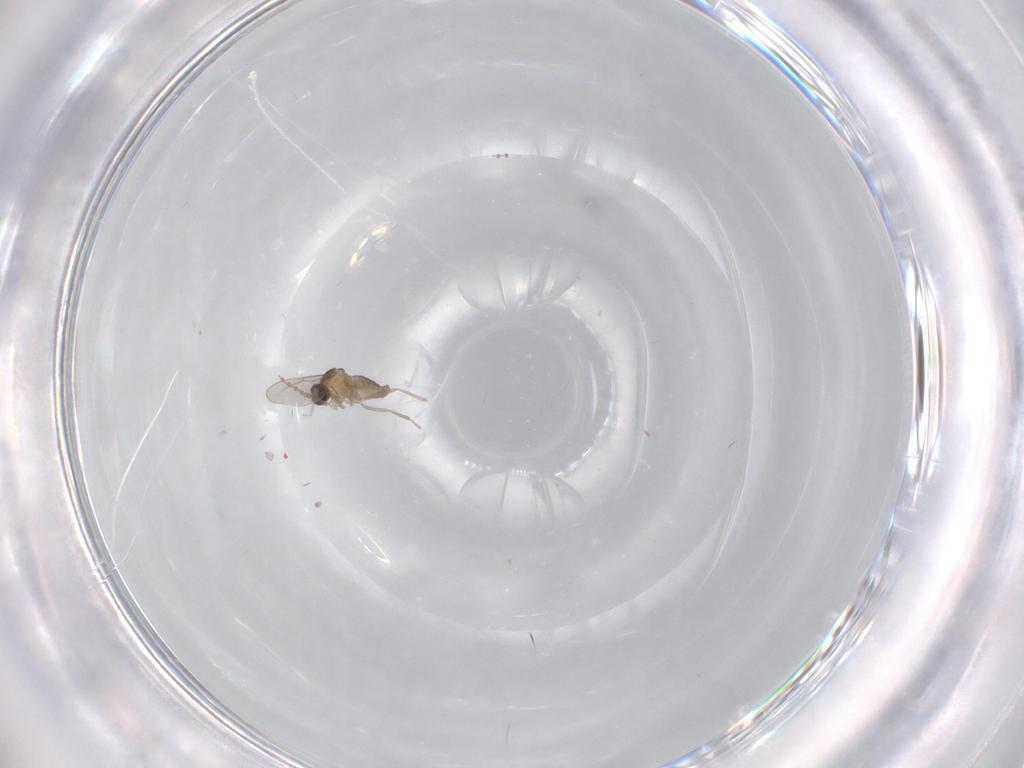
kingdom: Animalia
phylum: Arthropoda
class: Insecta
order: Diptera
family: Cecidomyiidae
